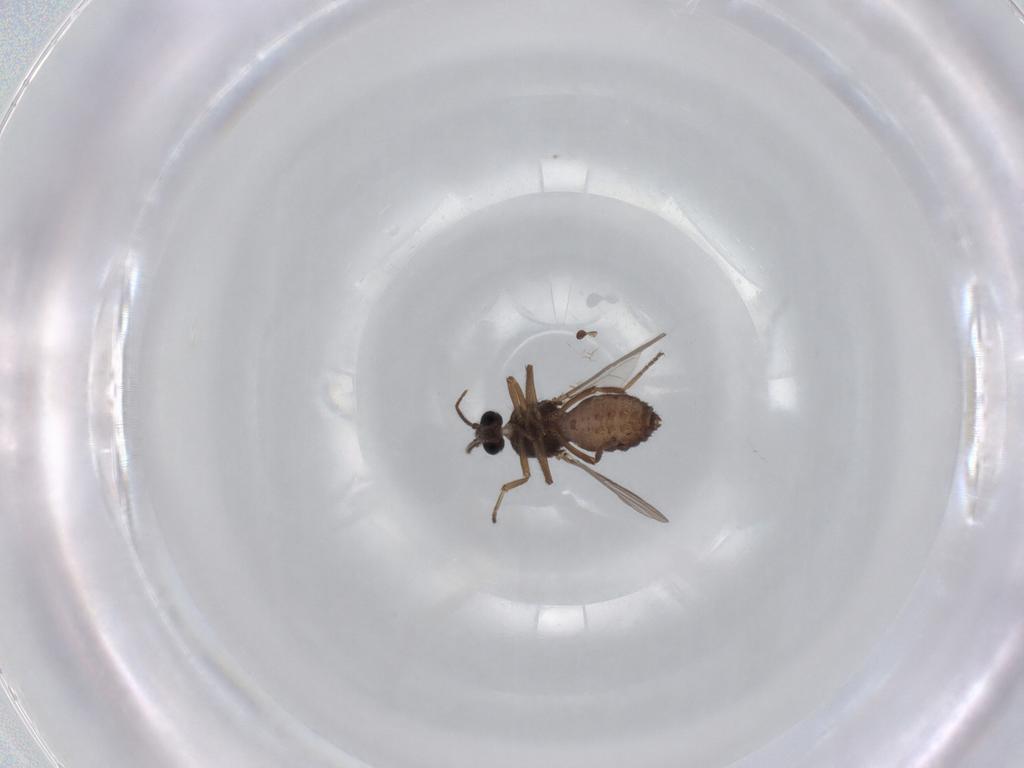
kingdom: Animalia
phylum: Arthropoda
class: Insecta
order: Diptera
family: Ceratopogonidae
